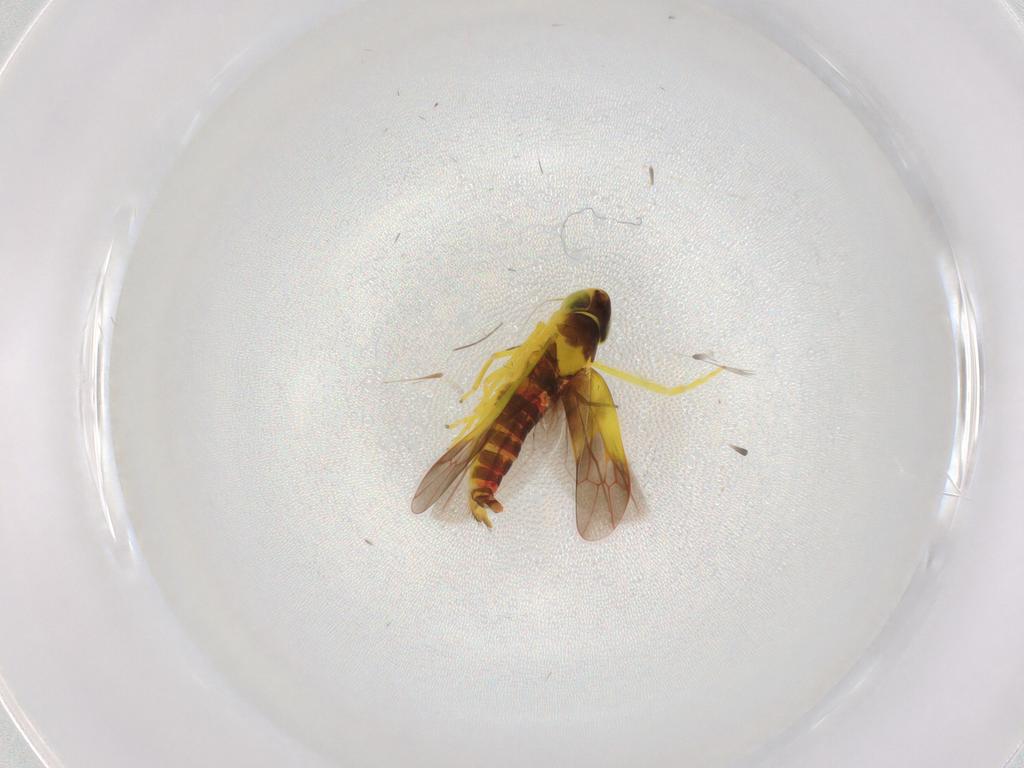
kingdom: Animalia
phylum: Arthropoda
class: Insecta
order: Hemiptera
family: Cicadellidae
